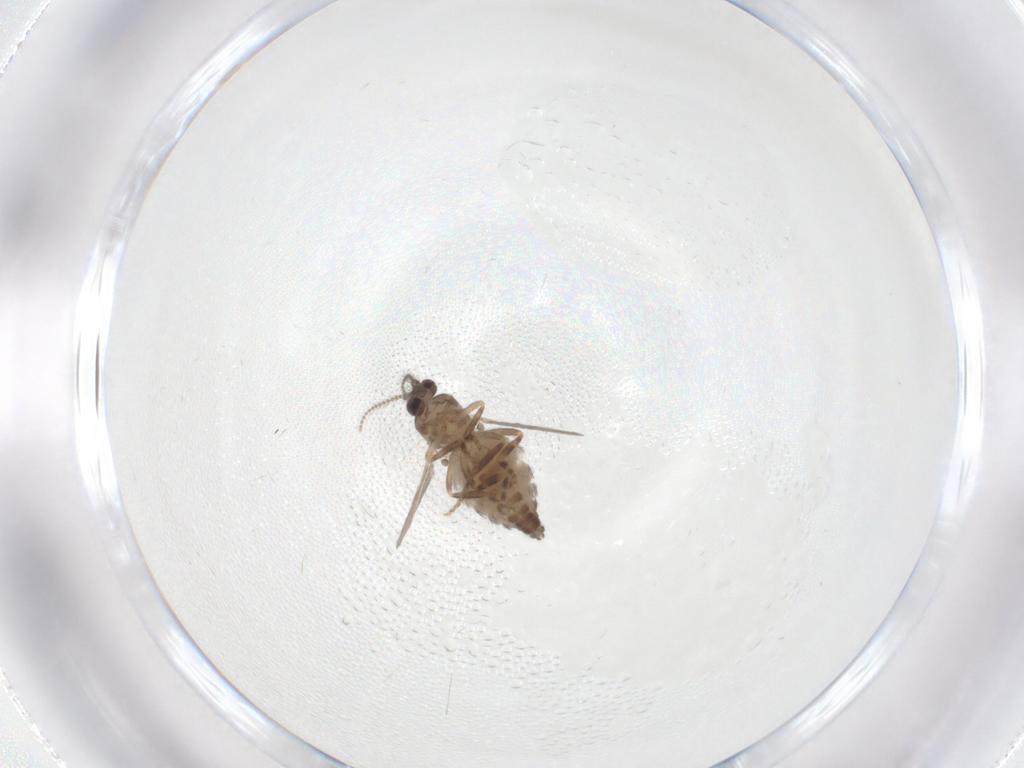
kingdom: Animalia
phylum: Arthropoda
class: Insecta
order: Diptera
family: Ceratopogonidae
